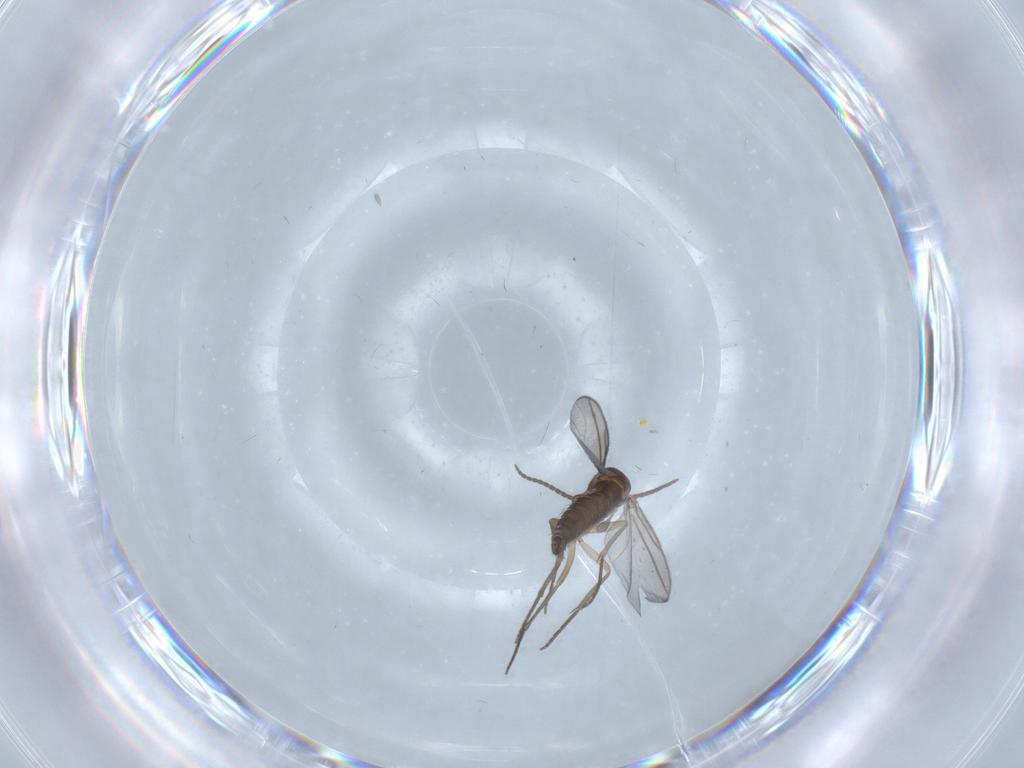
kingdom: Animalia
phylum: Arthropoda
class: Insecta
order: Diptera
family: Sciaridae
